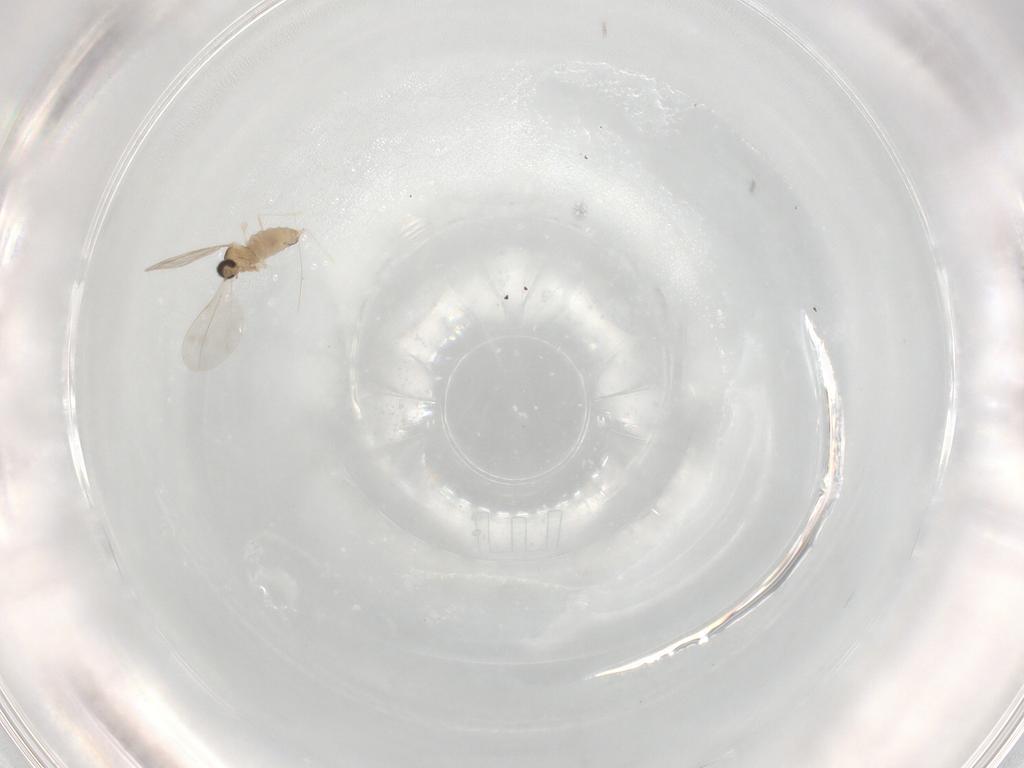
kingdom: Animalia
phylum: Arthropoda
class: Insecta
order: Diptera
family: Cecidomyiidae
